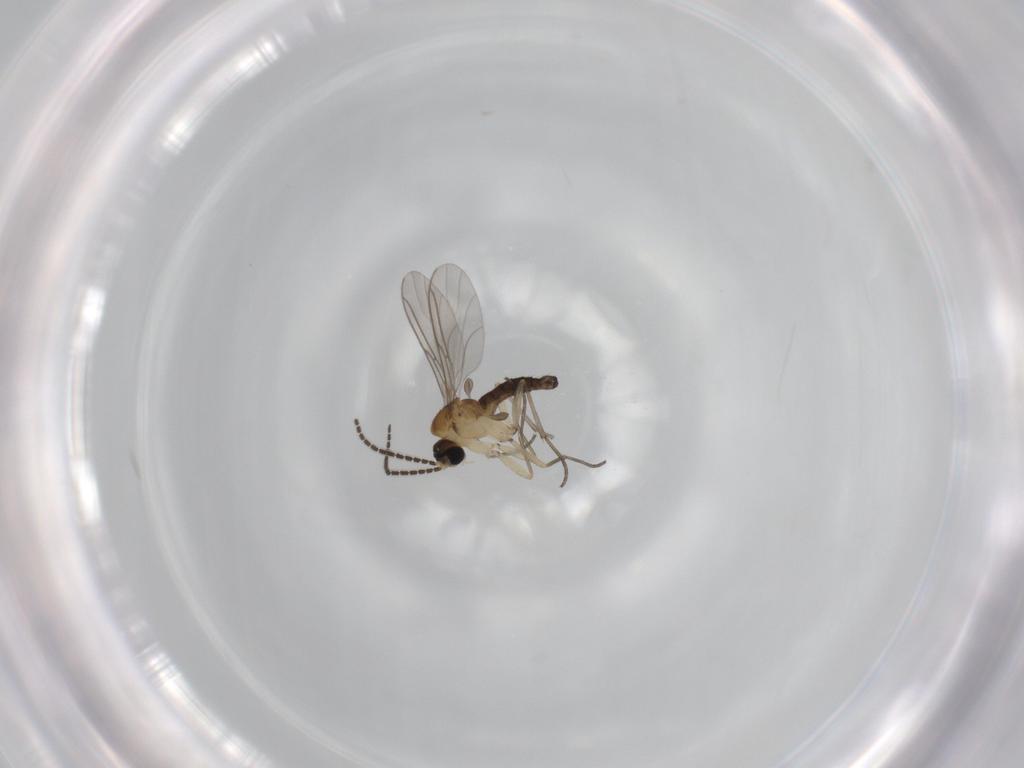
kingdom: Animalia
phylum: Arthropoda
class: Insecta
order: Diptera
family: Sciaridae
